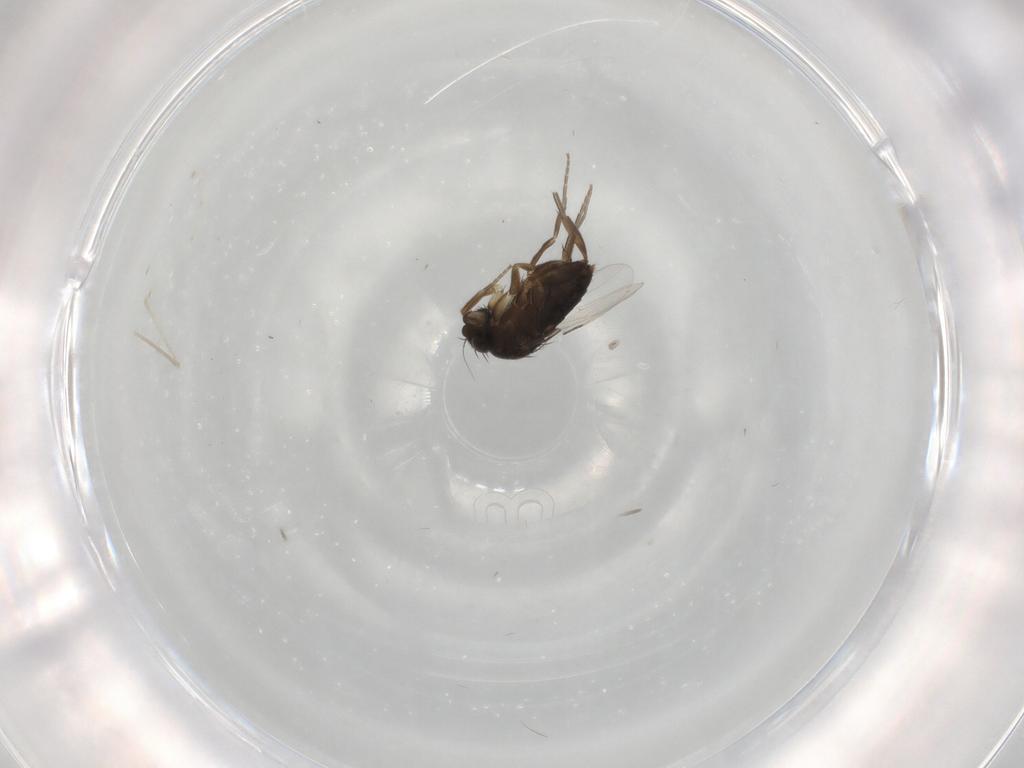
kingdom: Animalia
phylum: Arthropoda
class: Insecta
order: Diptera
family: Phoridae
